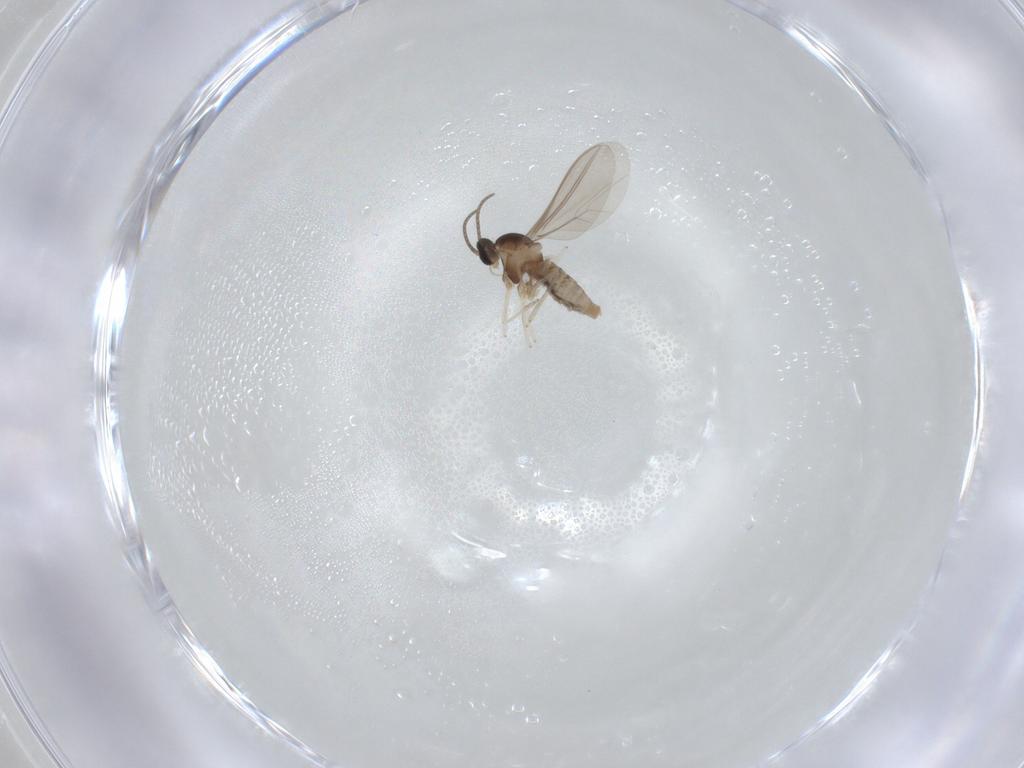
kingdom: Animalia
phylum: Arthropoda
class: Insecta
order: Diptera
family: Cecidomyiidae
